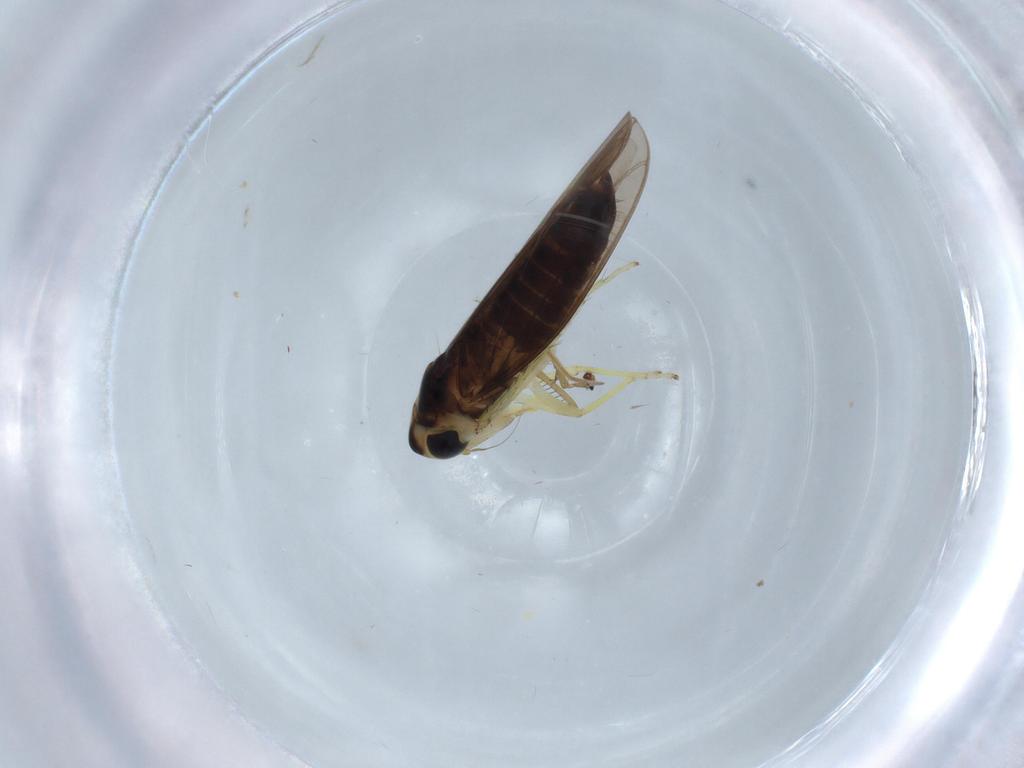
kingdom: Animalia
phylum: Arthropoda
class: Insecta
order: Hemiptera
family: Cicadellidae
